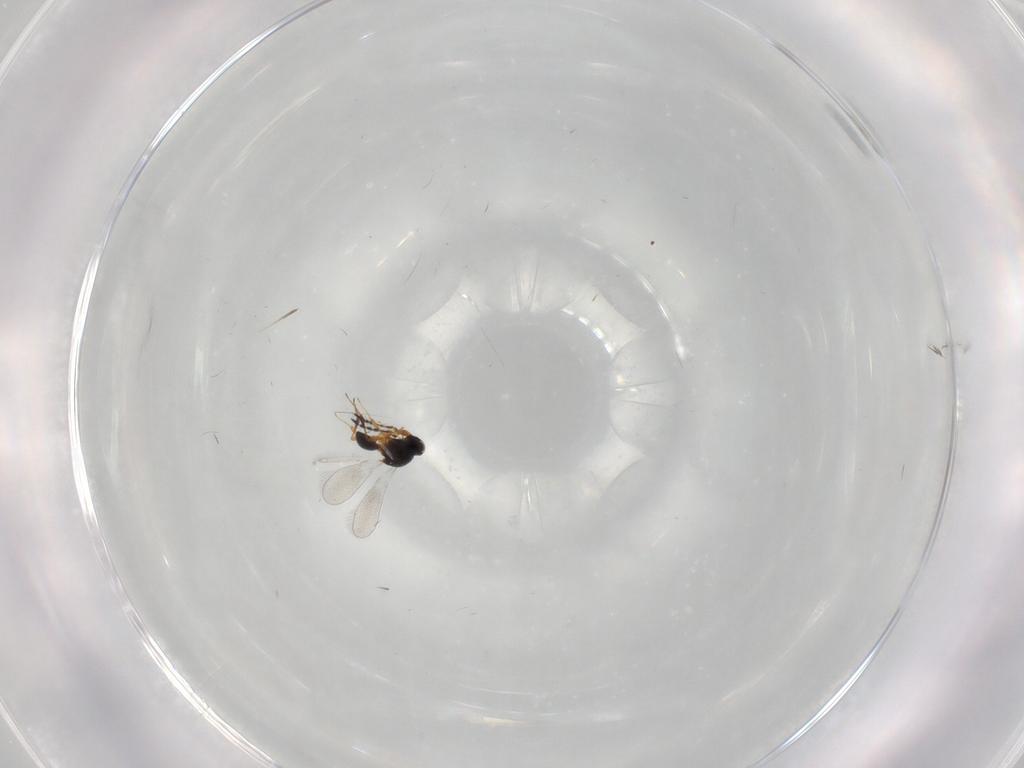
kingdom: Animalia
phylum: Arthropoda
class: Insecta
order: Hymenoptera
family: Platygastridae
